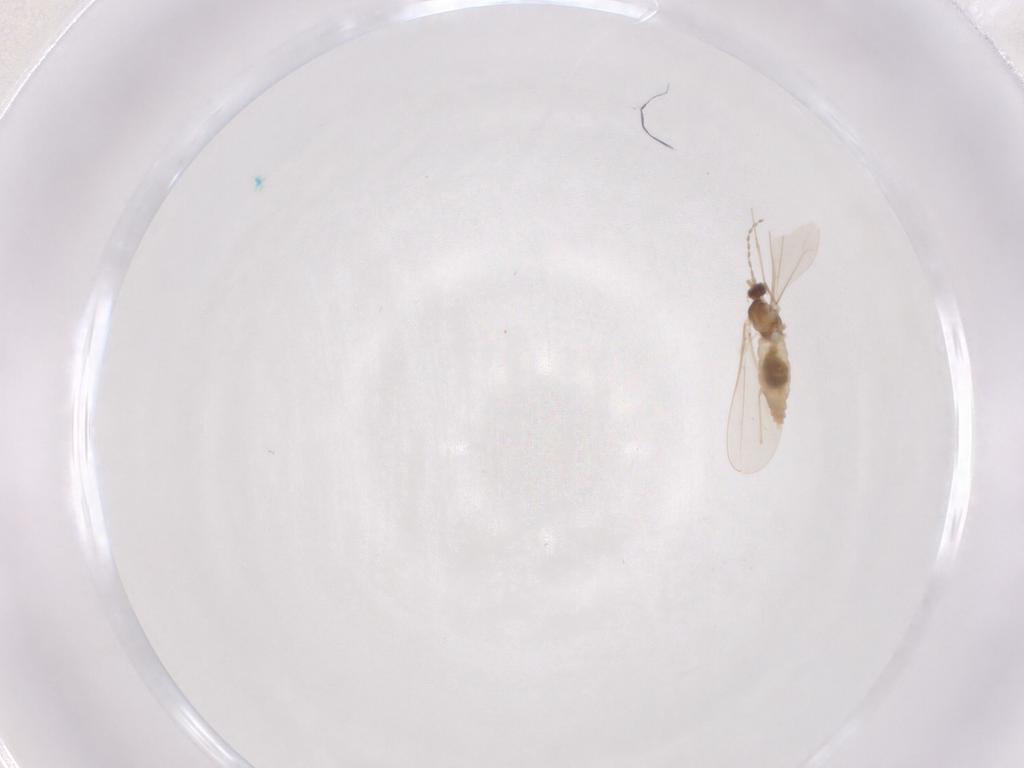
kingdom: Animalia
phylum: Arthropoda
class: Insecta
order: Diptera
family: Cecidomyiidae
